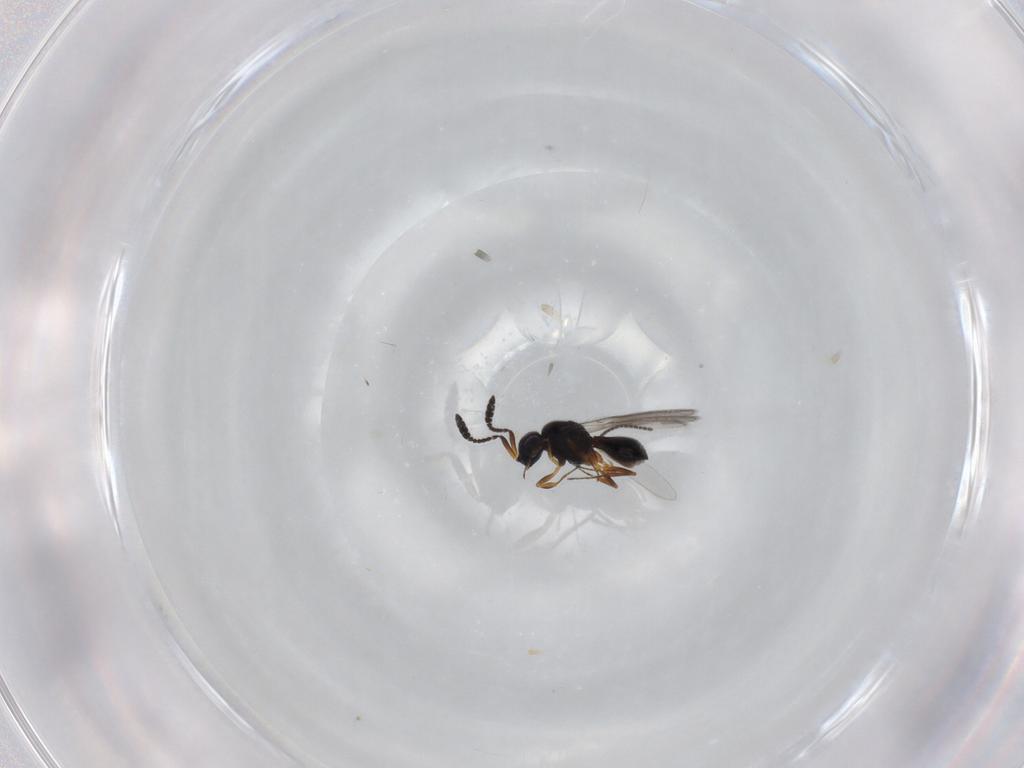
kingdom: Animalia
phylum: Arthropoda
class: Insecta
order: Hymenoptera
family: Scelionidae
